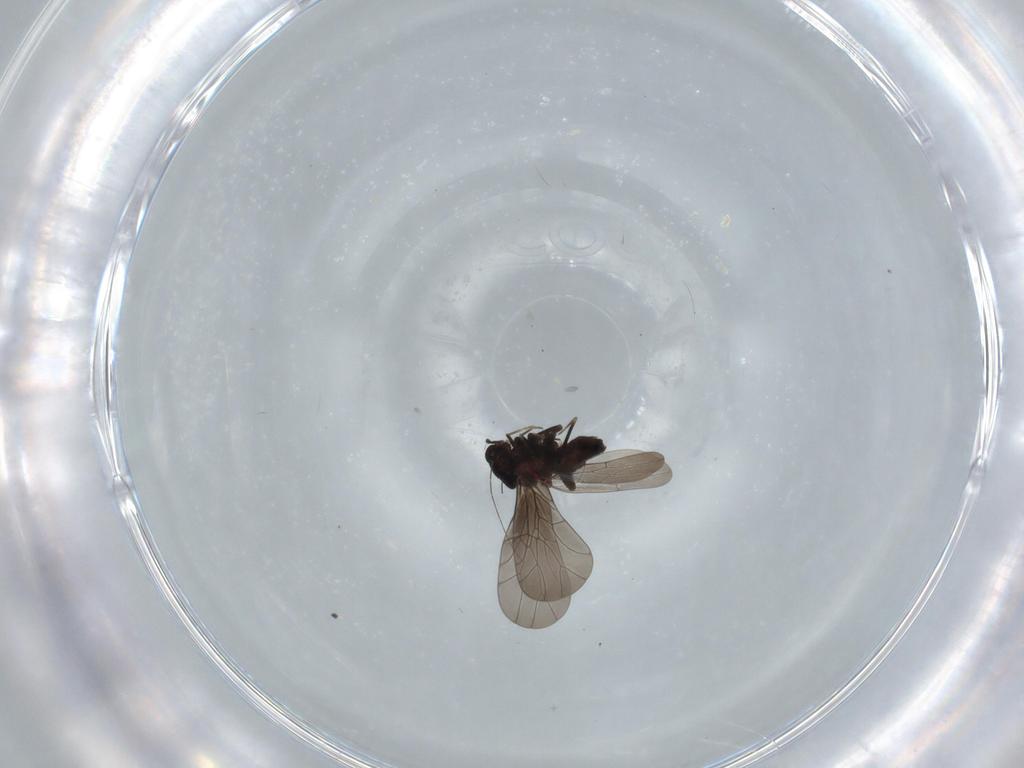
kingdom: Animalia
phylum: Arthropoda
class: Insecta
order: Psocodea
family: Lepidopsocidae
